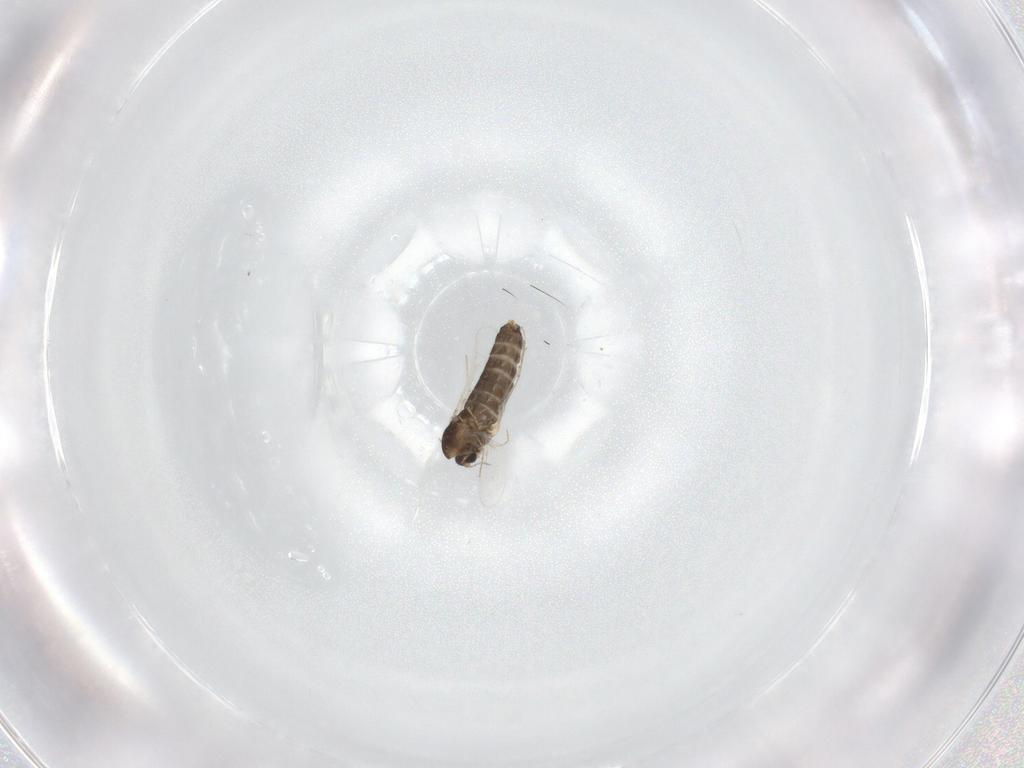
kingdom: Animalia
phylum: Arthropoda
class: Insecta
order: Diptera
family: Chironomidae
